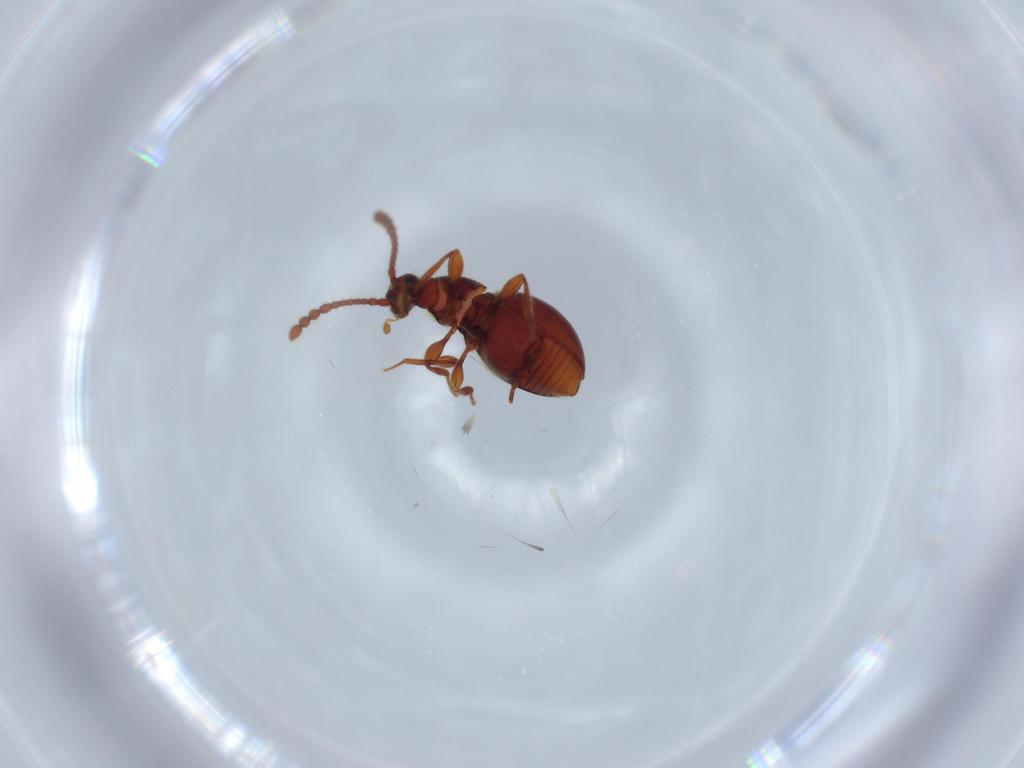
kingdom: Animalia
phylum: Arthropoda
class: Insecta
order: Coleoptera
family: Staphylinidae
